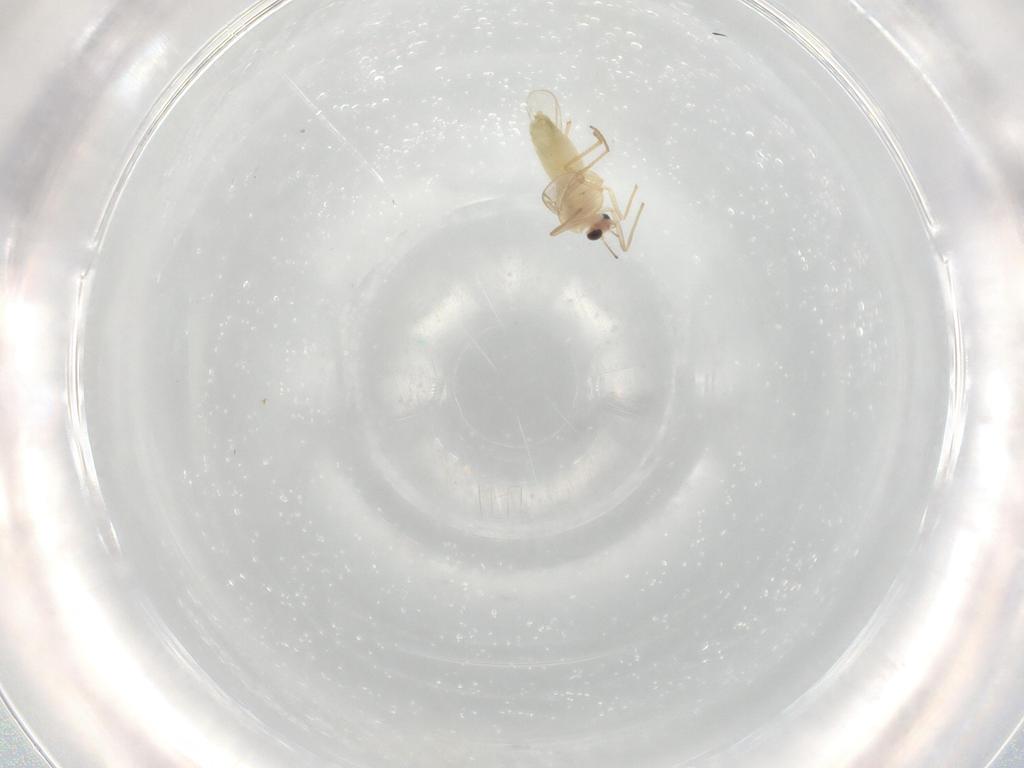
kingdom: Animalia
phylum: Arthropoda
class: Insecta
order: Diptera
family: Chironomidae
